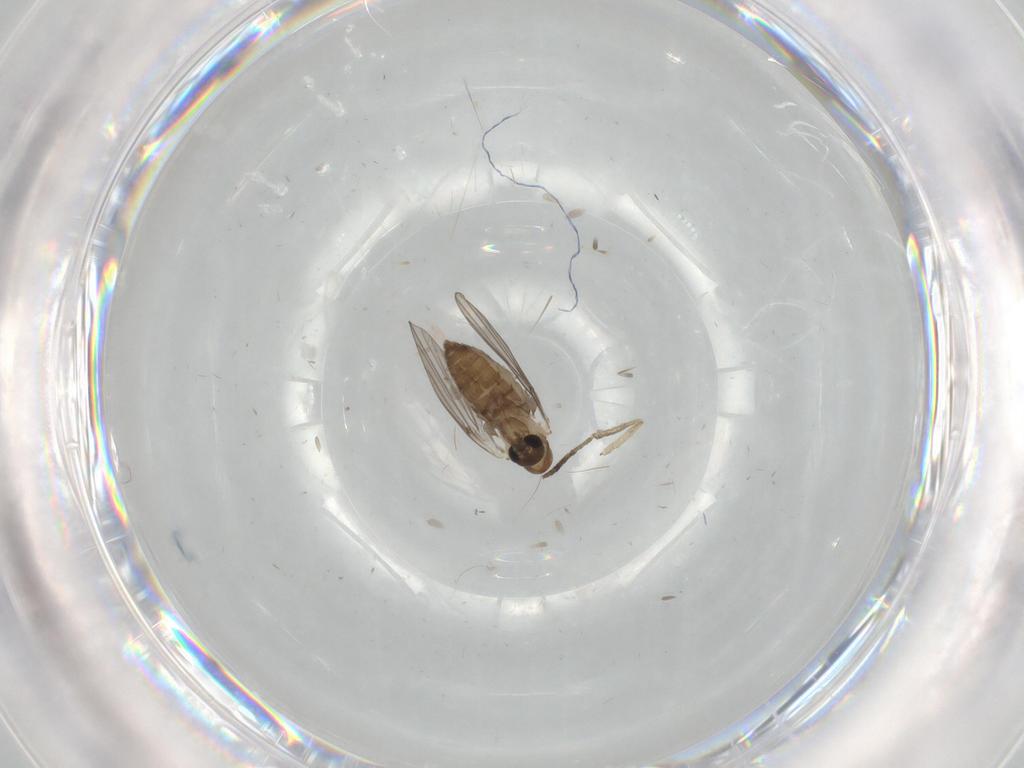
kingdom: Animalia
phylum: Arthropoda
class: Insecta
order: Diptera
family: Psychodidae
